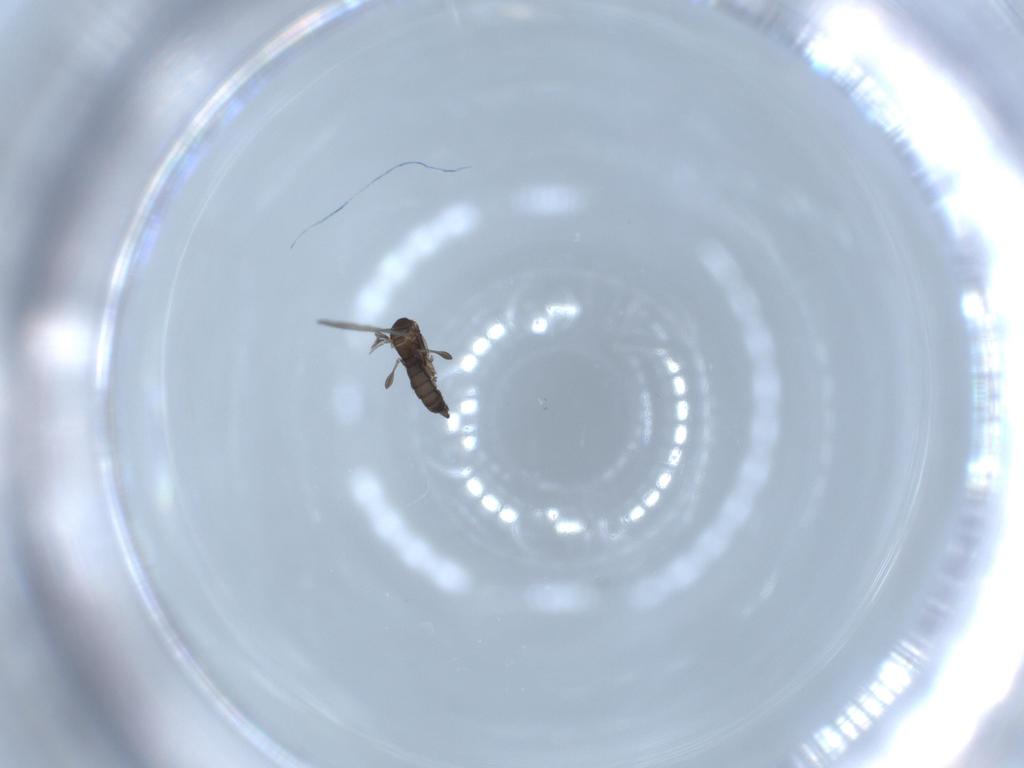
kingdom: Animalia
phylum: Arthropoda
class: Insecta
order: Diptera
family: Sciaridae
